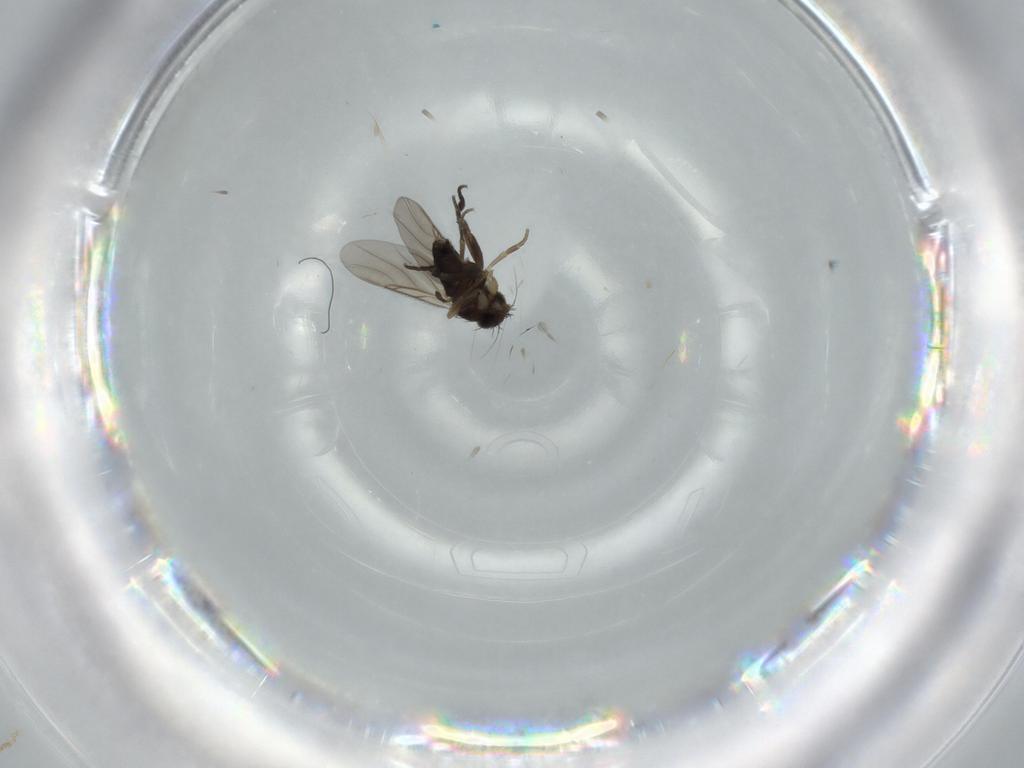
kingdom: Animalia
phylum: Arthropoda
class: Insecta
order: Diptera
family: Phoridae
